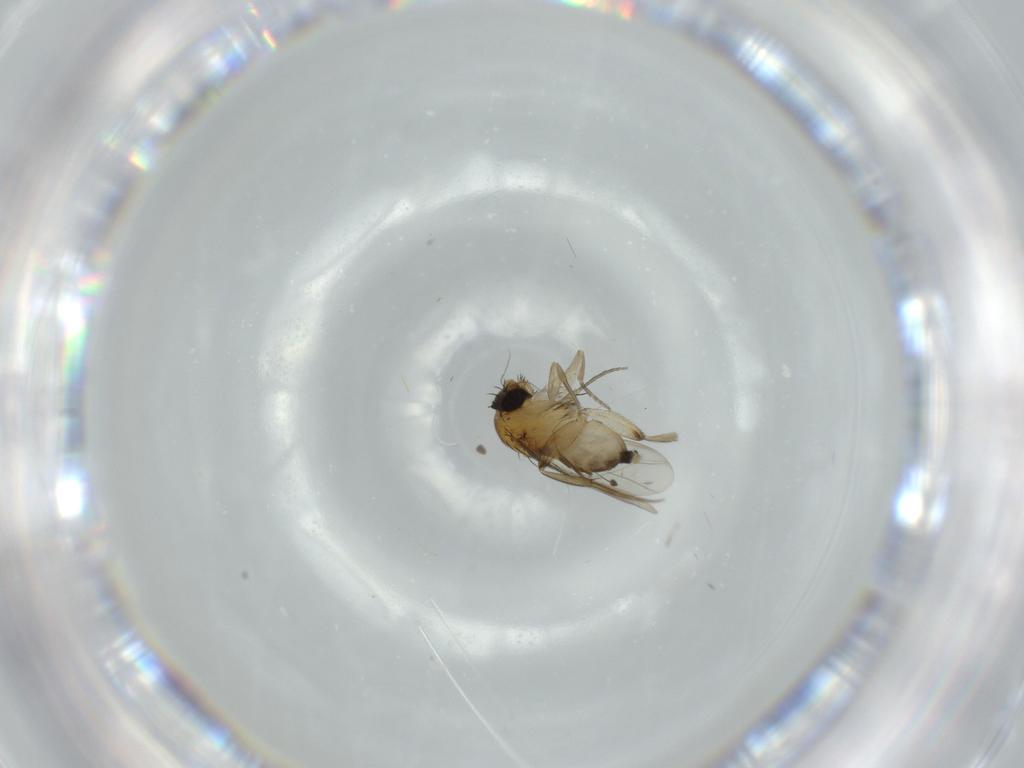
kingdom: Animalia
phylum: Arthropoda
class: Insecta
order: Diptera
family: Phoridae
